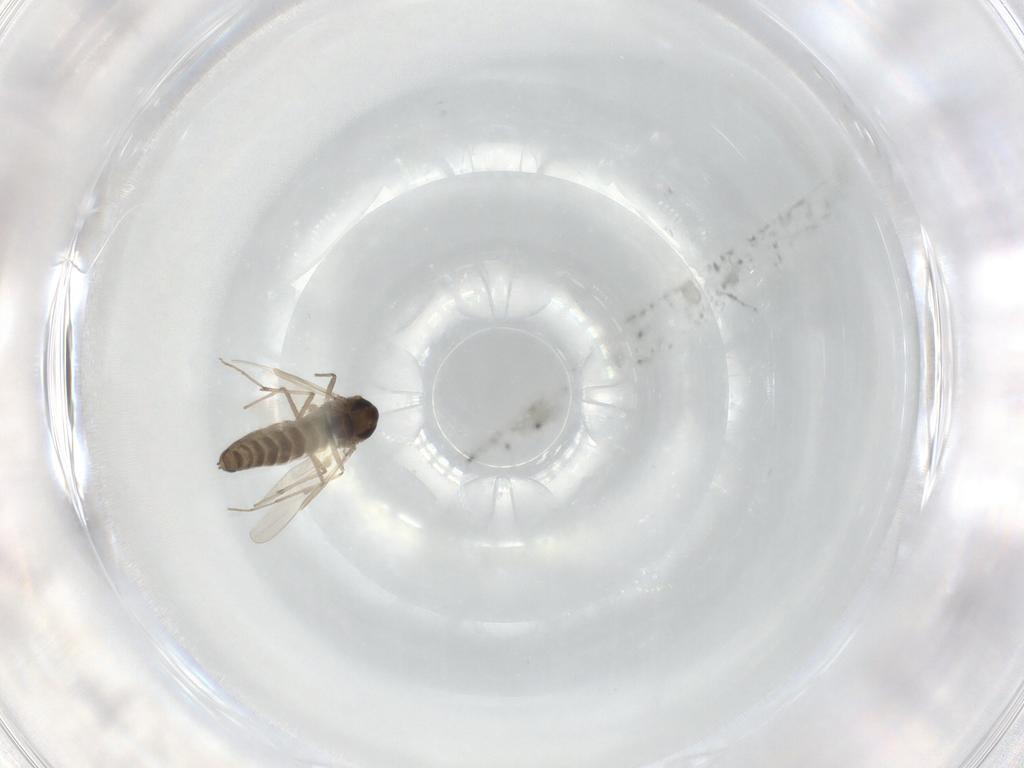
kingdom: Animalia
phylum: Arthropoda
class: Insecta
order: Diptera
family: Chironomidae
